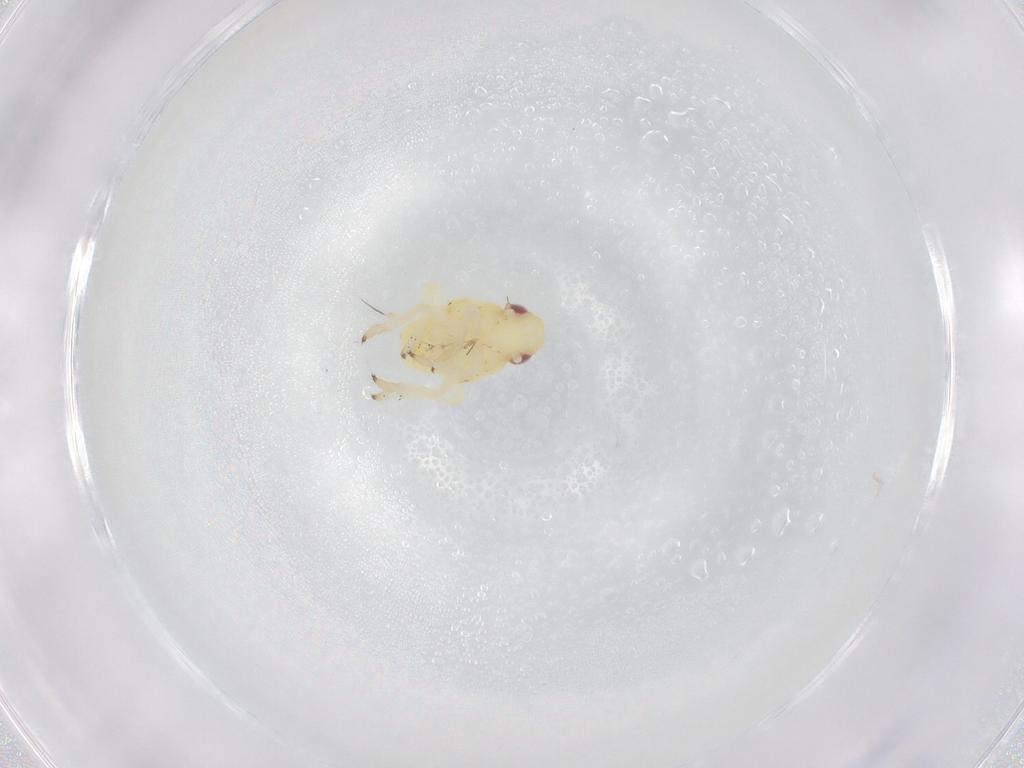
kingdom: Animalia
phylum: Arthropoda
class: Insecta
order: Hemiptera
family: Caliscelidae
